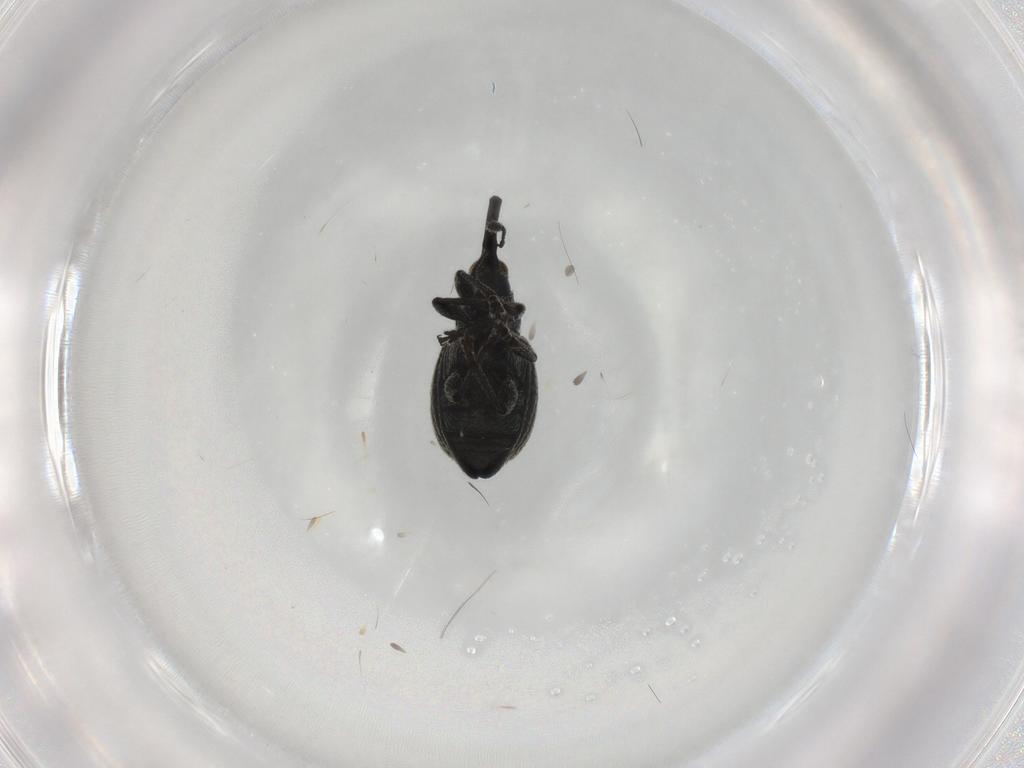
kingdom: Animalia
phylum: Arthropoda
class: Insecta
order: Coleoptera
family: Brentidae
